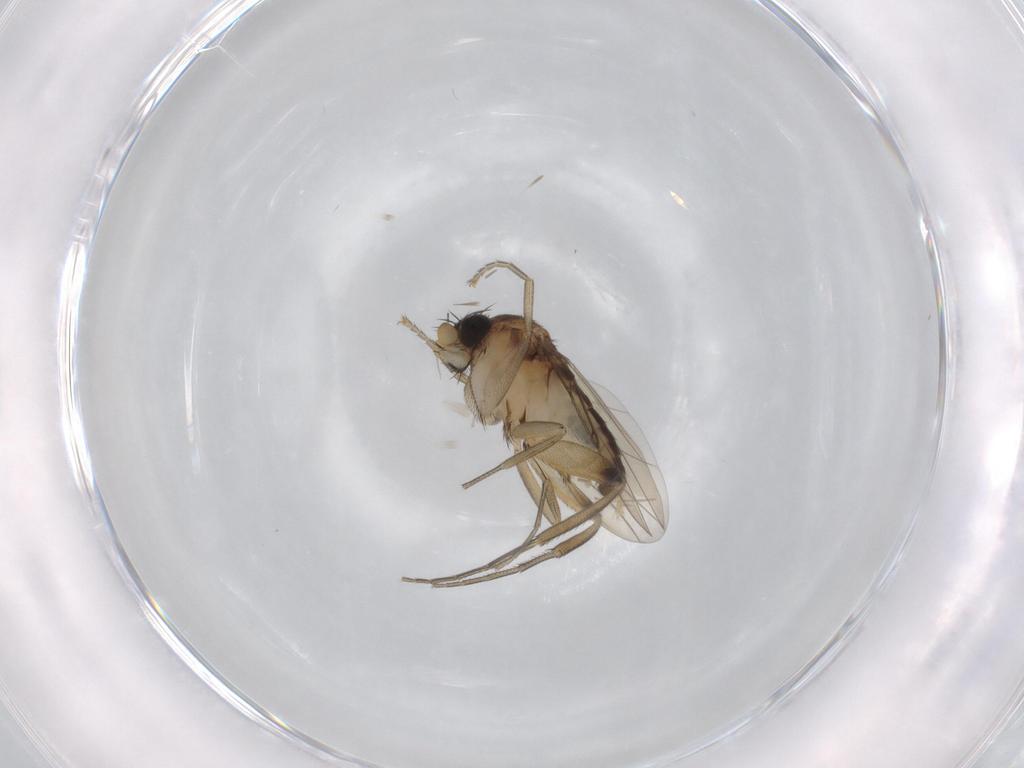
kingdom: Animalia
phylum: Arthropoda
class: Insecta
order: Diptera
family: Phoridae
